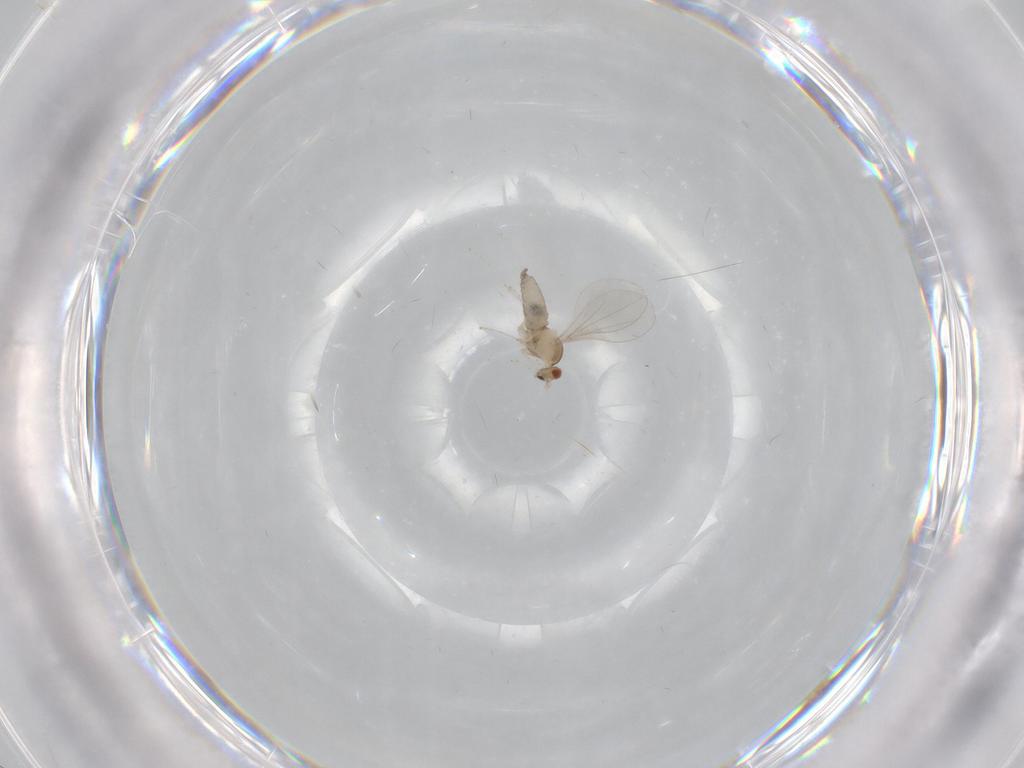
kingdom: Animalia
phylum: Arthropoda
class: Insecta
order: Diptera
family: Cecidomyiidae
